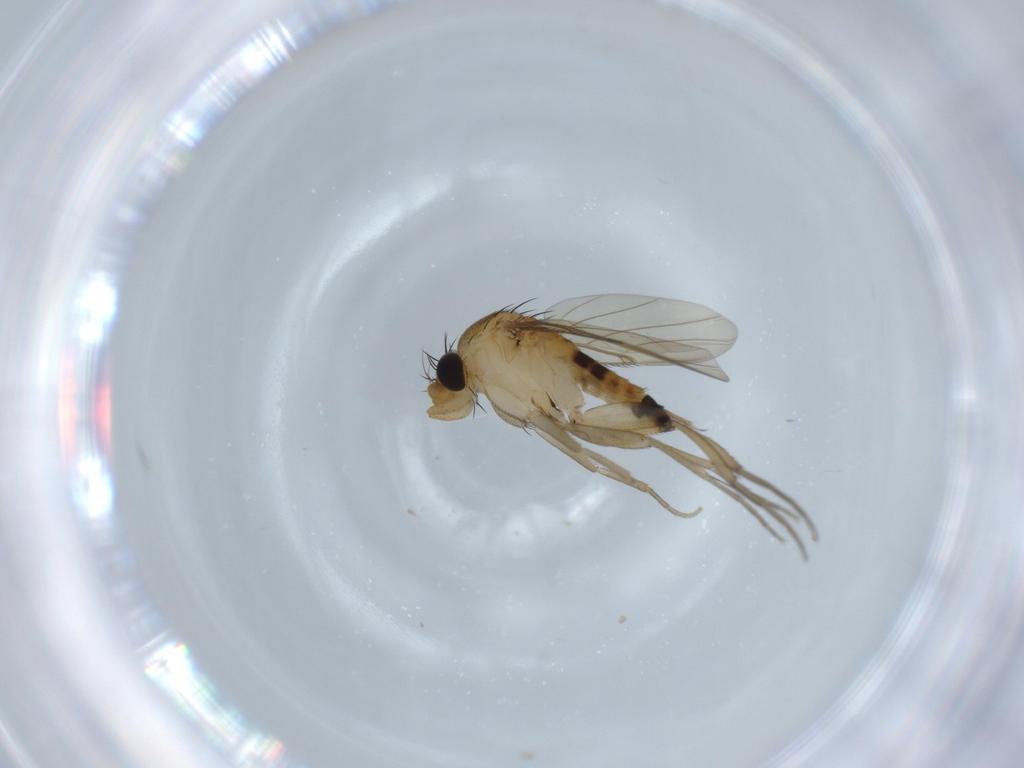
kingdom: Animalia
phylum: Arthropoda
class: Insecta
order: Diptera
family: Phoridae
